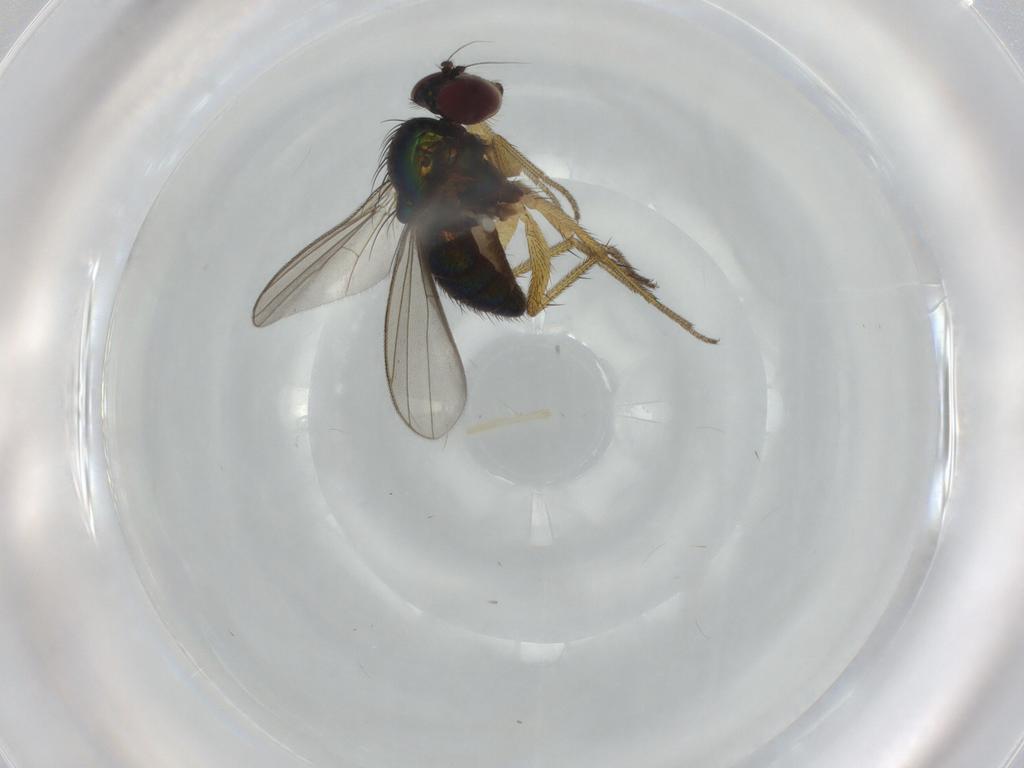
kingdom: Animalia
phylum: Arthropoda
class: Insecta
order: Diptera
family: Dolichopodidae
